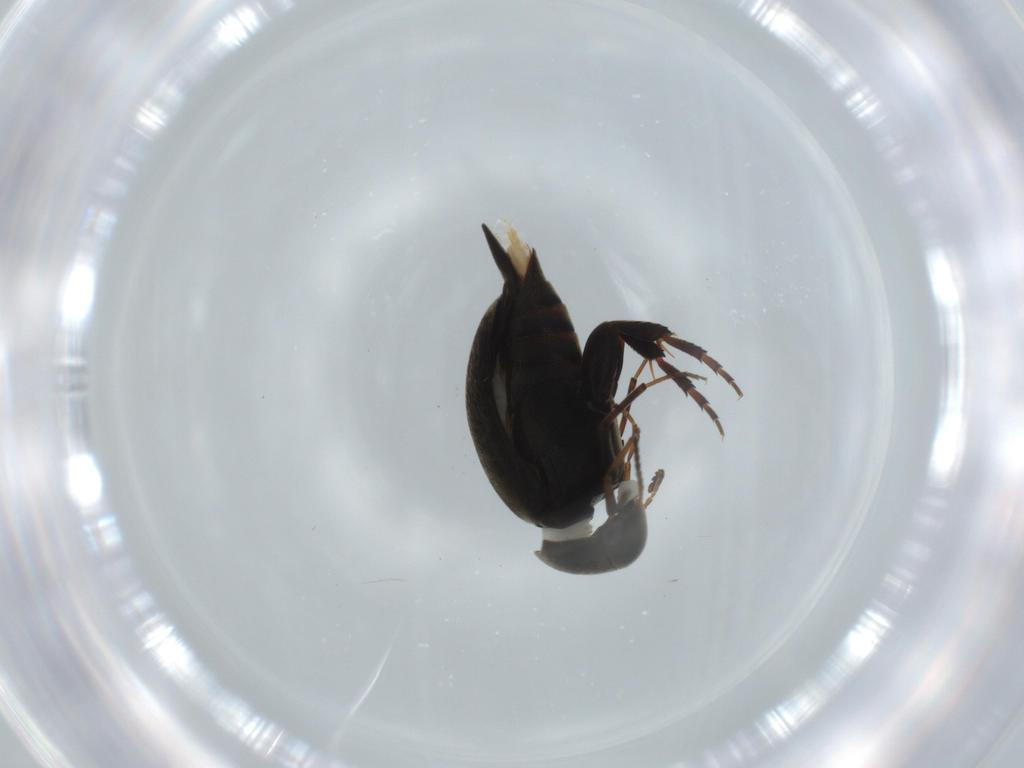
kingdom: Animalia
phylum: Arthropoda
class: Insecta
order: Coleoptera
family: Mordellidae
